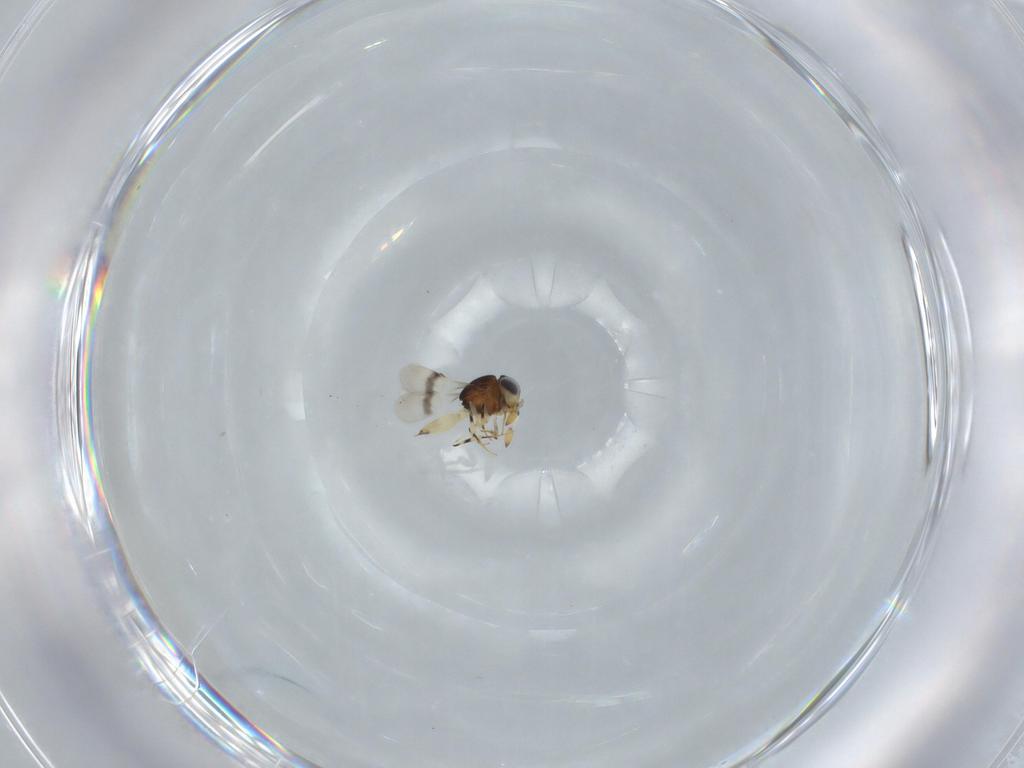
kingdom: Animalia
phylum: Arthropoda
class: Insecta
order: Hymenoptera
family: Scelionidae
